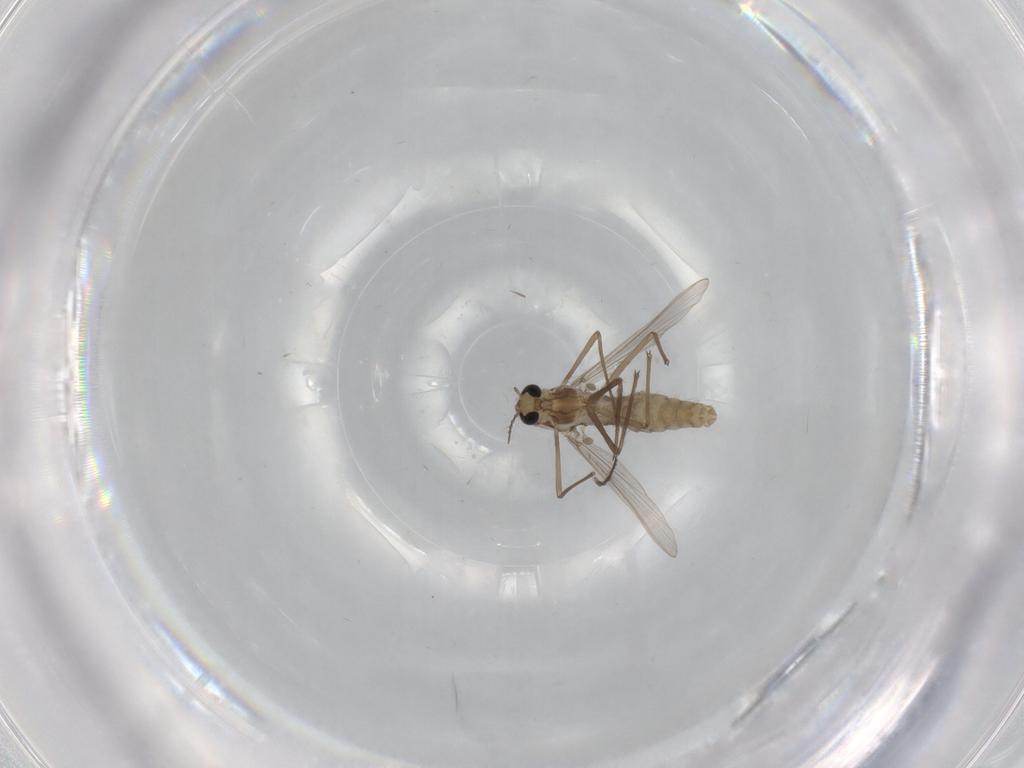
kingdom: Animalia
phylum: Arthropoda
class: Insecta
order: Diptera
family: Chironomidae
